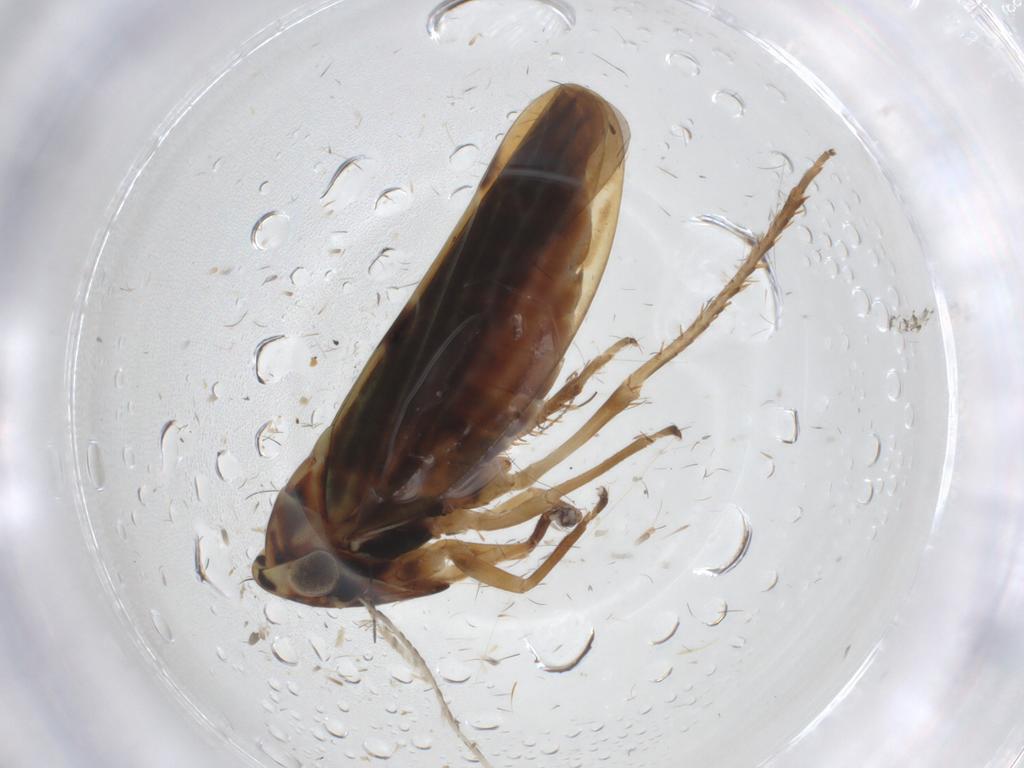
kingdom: Animalia
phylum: Arthropoda
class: Insecta
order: Hemiptera
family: Cicadellidae
